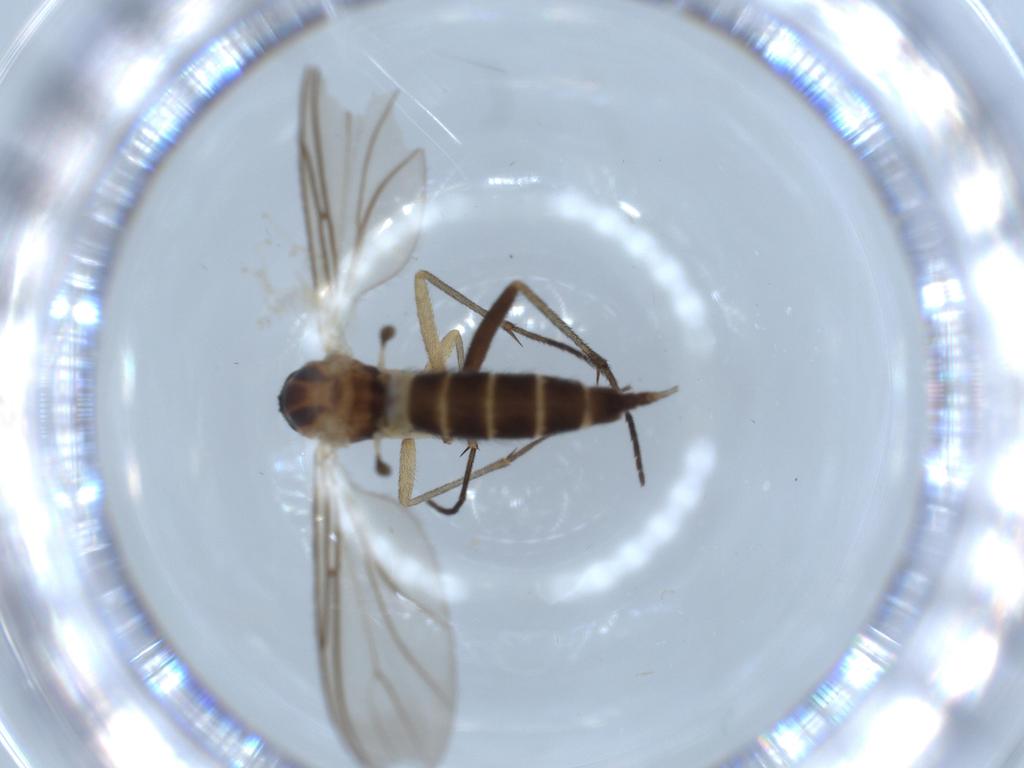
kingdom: Animalia
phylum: Arthropoda
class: Insecta
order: Diptera
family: Sciaridae
